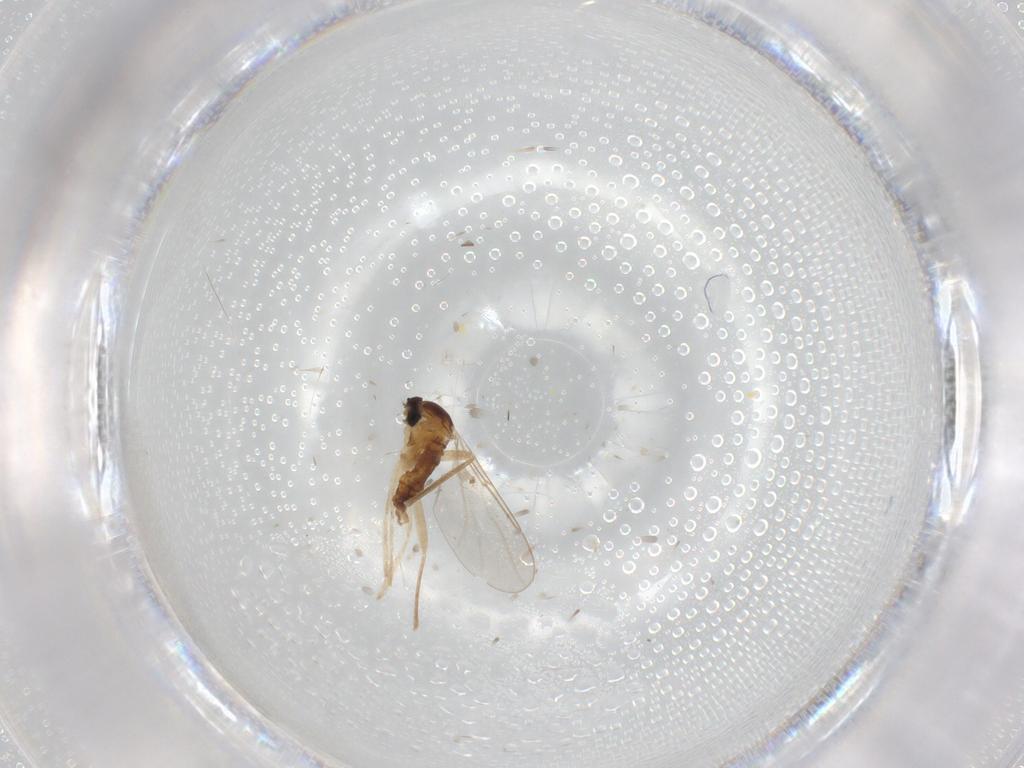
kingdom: Animalia
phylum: Arthropoda
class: Insecta
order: Diptera
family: Cecidomyiidae
